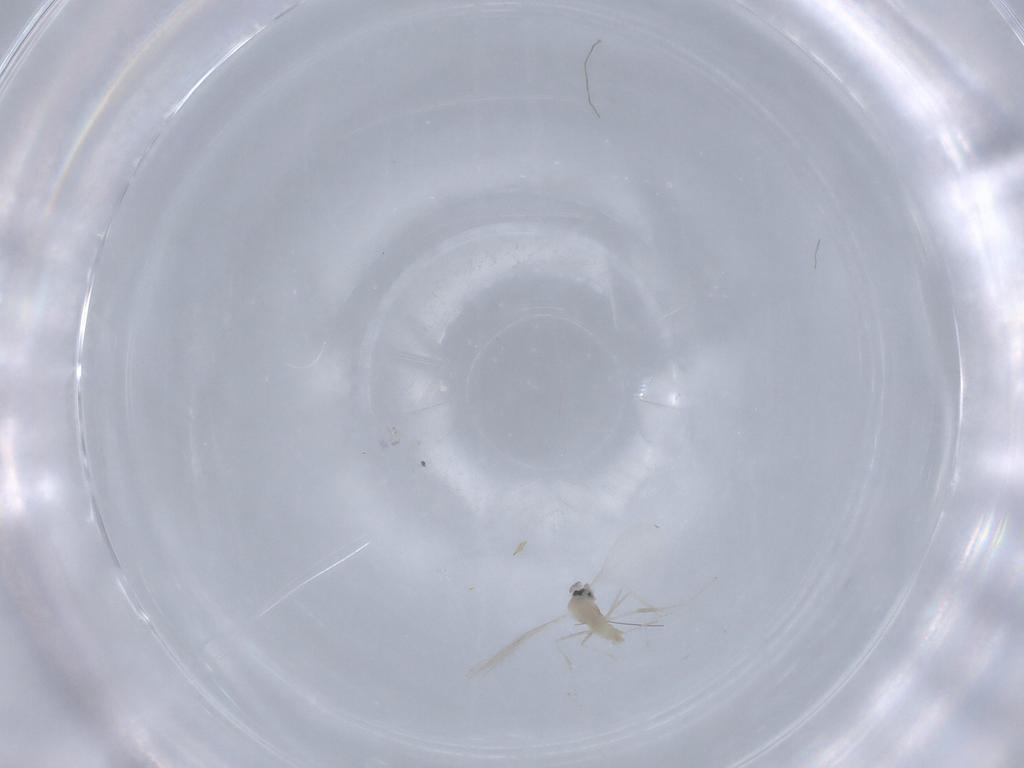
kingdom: Animalia
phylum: Arthropoda
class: Insecta
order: Diptera
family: Cecidomyiidae
